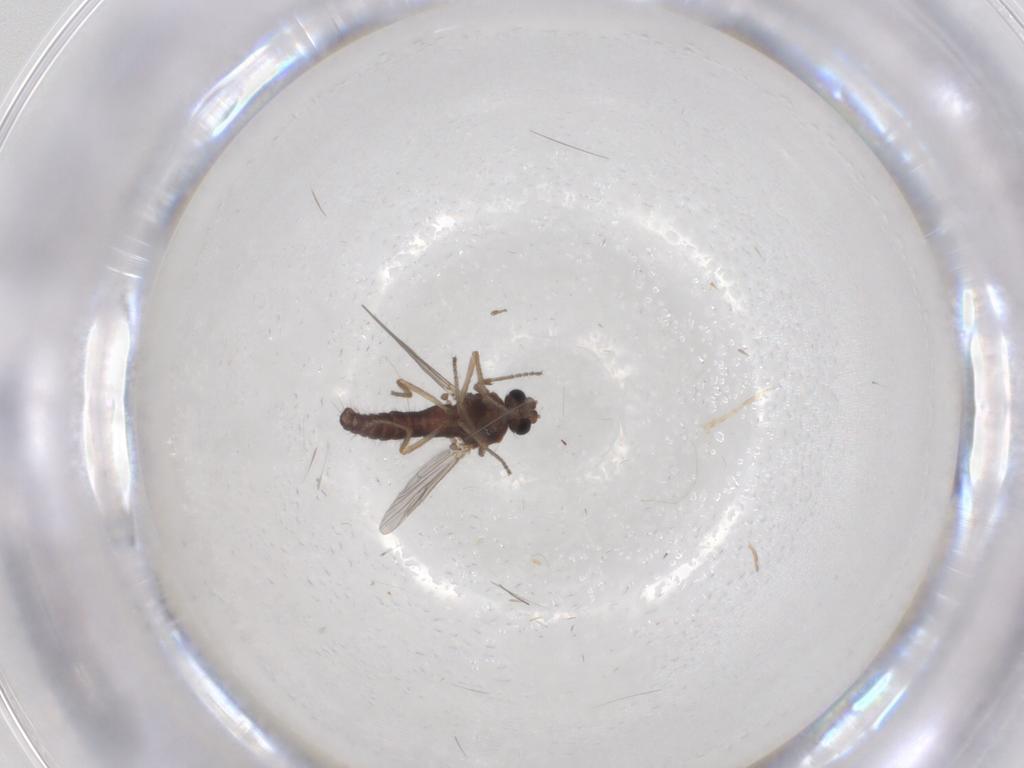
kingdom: Animalia
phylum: Arthropoda
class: Insecta
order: Diptera
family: Ceratopogonidae
